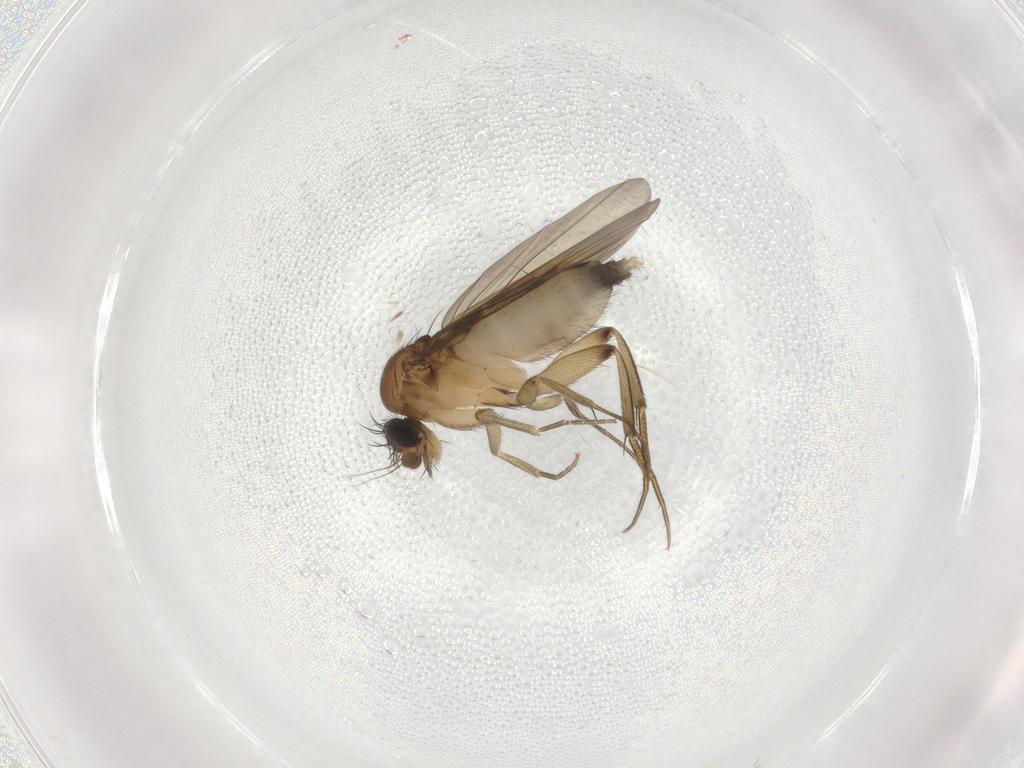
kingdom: Animalia
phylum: Arthropoda
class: Insecta
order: Diptera
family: Phoridae
